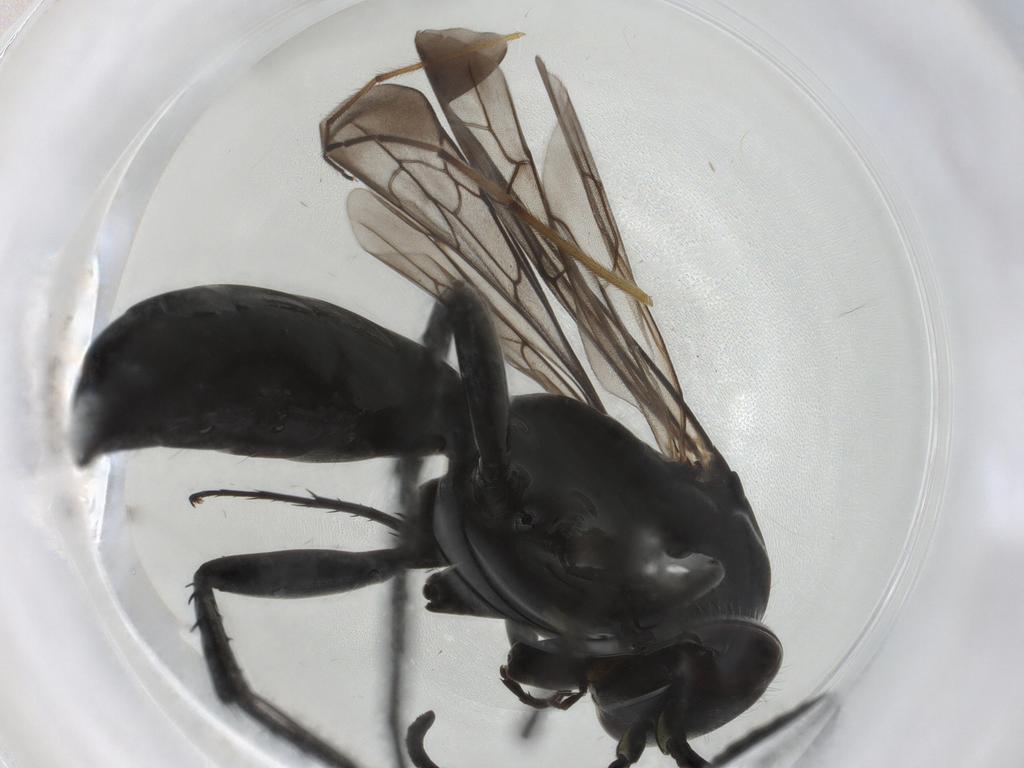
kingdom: Animalia
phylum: Arthropoda
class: Insecta
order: Hymenoptera
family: Pompilidae
